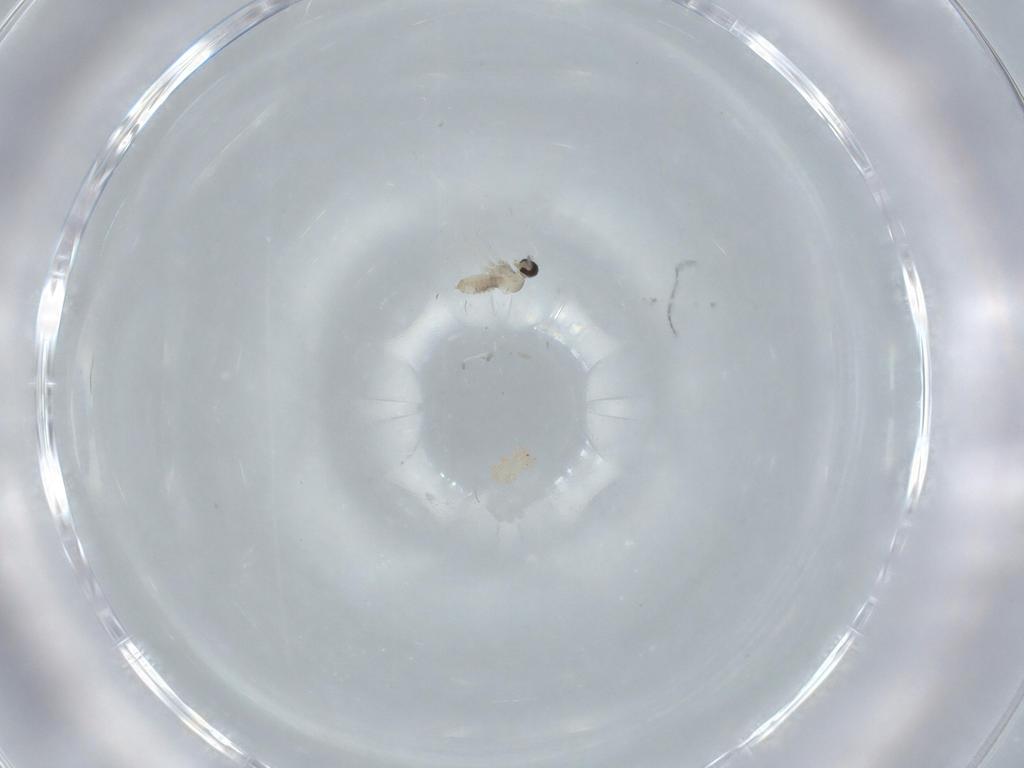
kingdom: Animalia
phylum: Arthropoda
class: Insecta
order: Diptera
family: Cecidomyiidae
